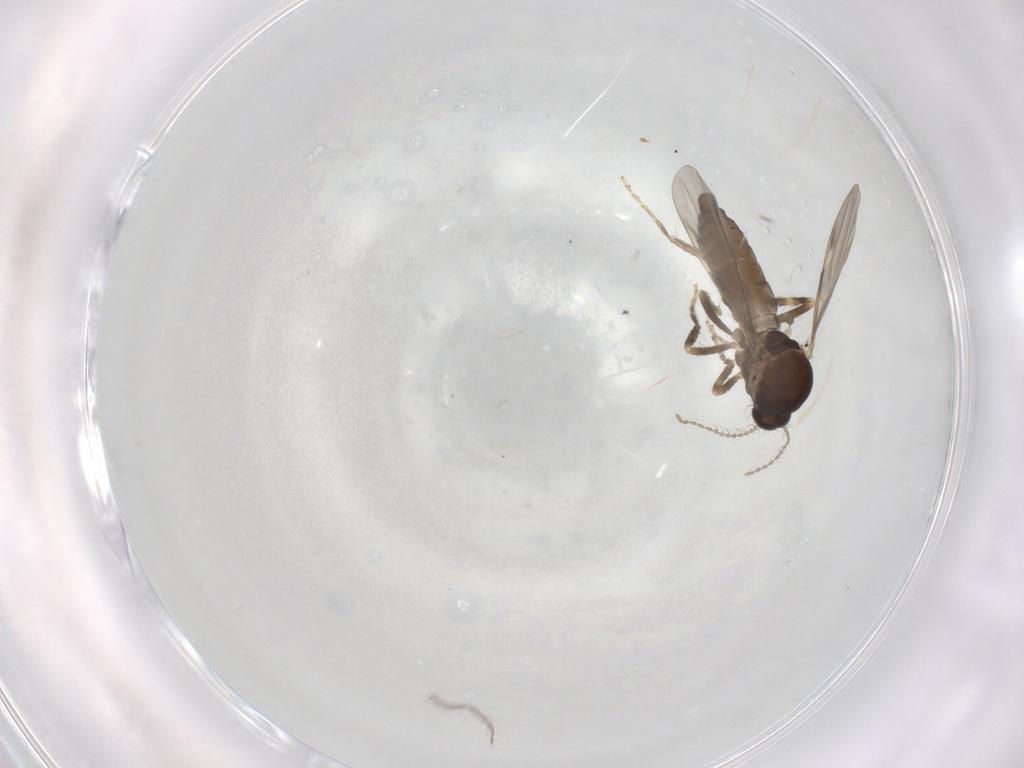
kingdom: Animalia
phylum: Arthropoda
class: Insecta
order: Diptera
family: Ceratopogonidae
